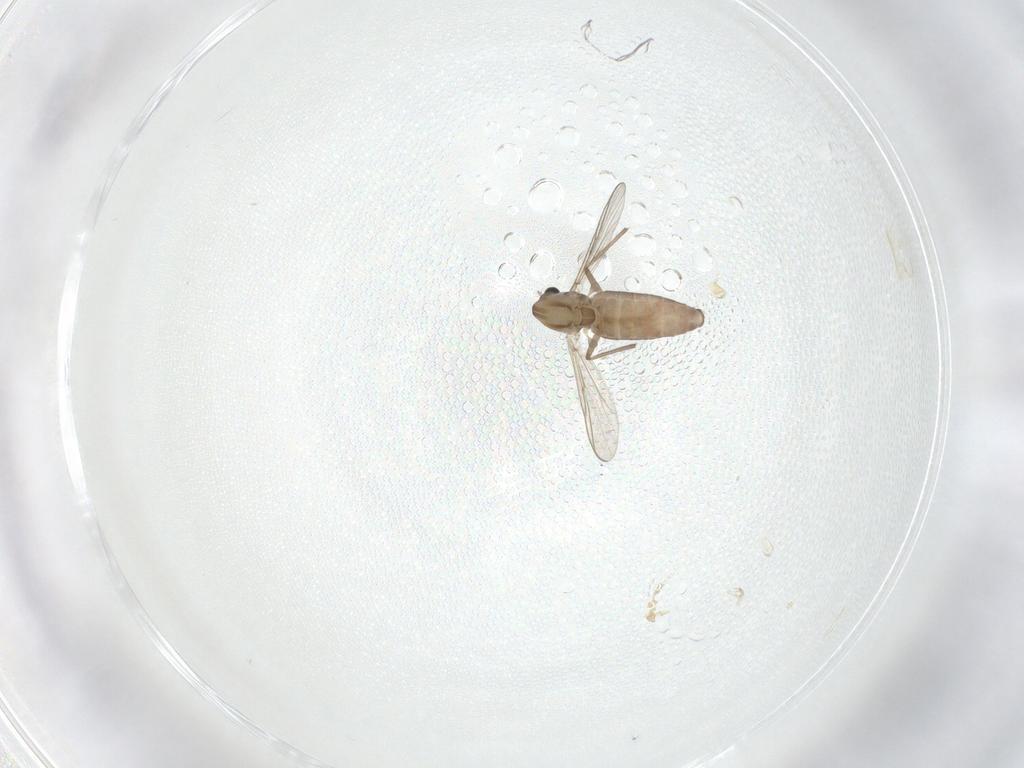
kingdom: Animalia
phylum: Arthropoda
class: Insecta
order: Diptera
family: Chironomidae
